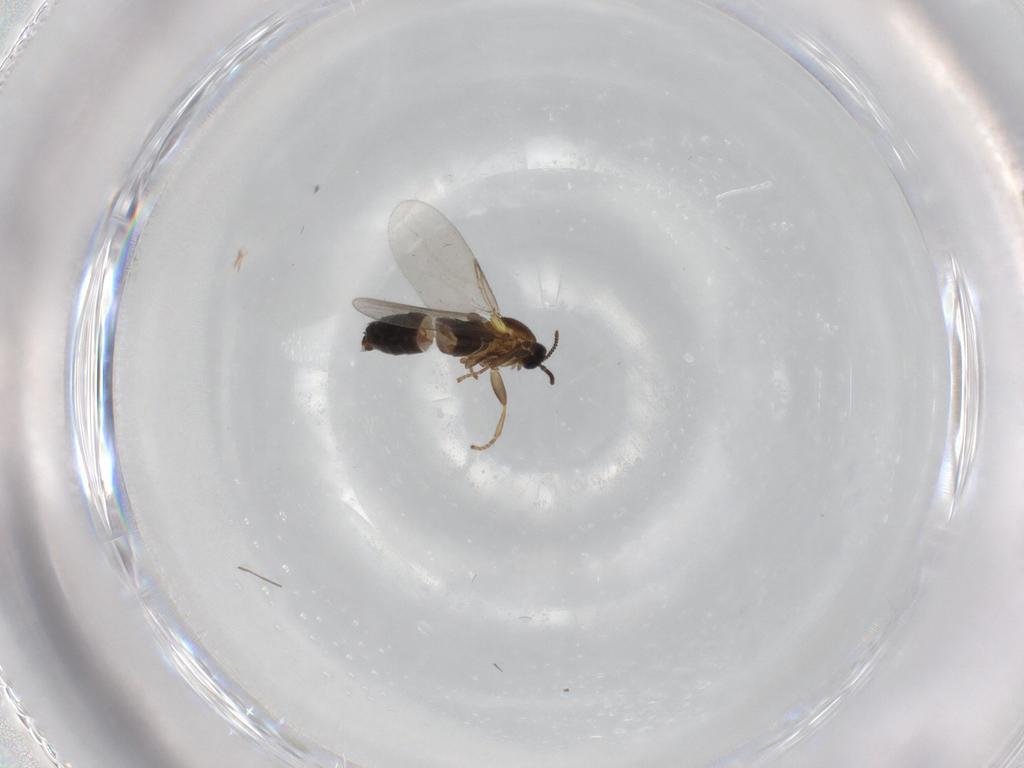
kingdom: Animalia
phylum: Arthropoda
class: Insecta
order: Diptera
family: Scatopsidae
